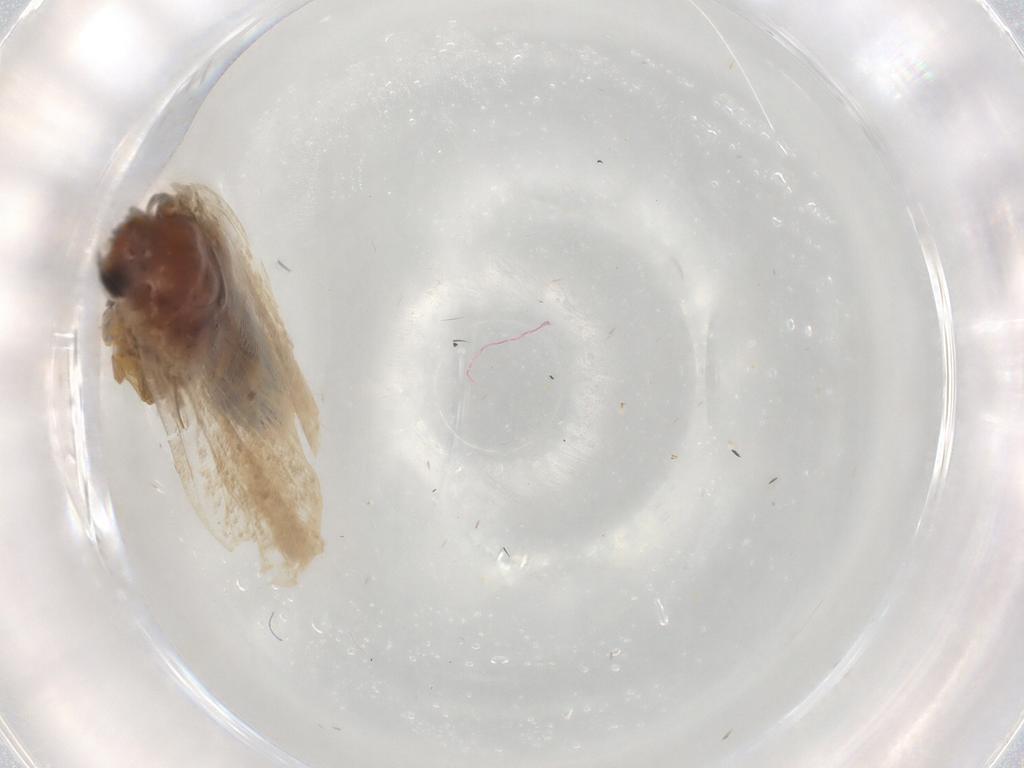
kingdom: Animalia
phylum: Arthropoda
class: Insecta
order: Lepidoptera
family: Gelechiidae
